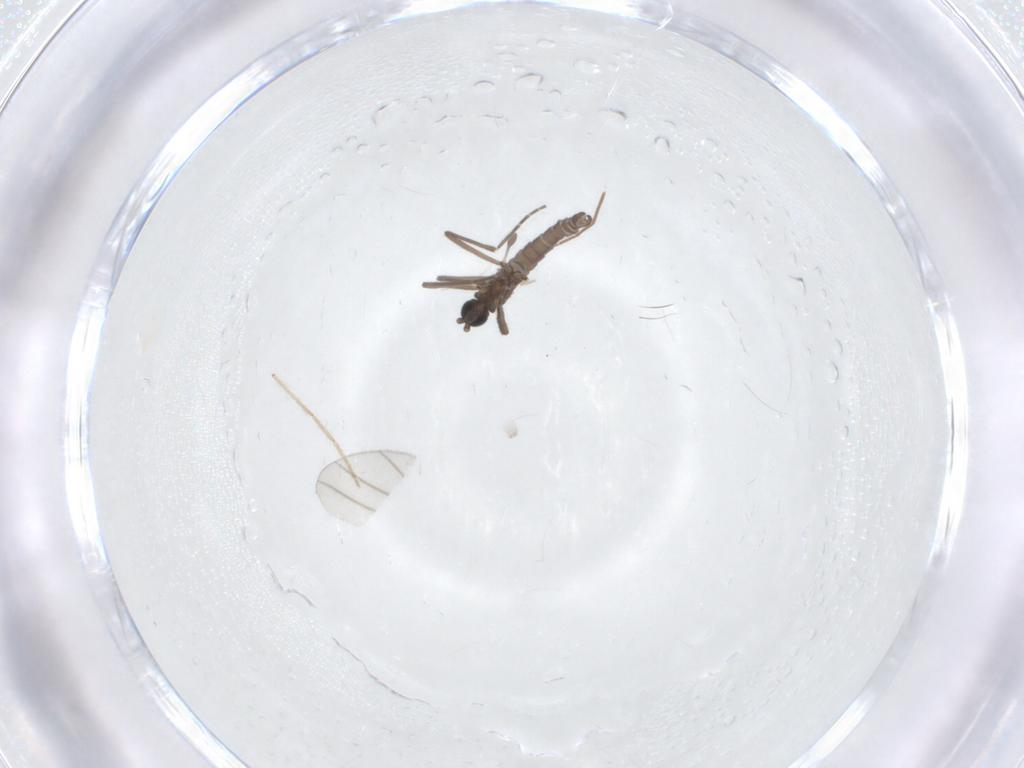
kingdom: Animalia
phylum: Arthropoda
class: Insecta
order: Diptera
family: Sciaridae
